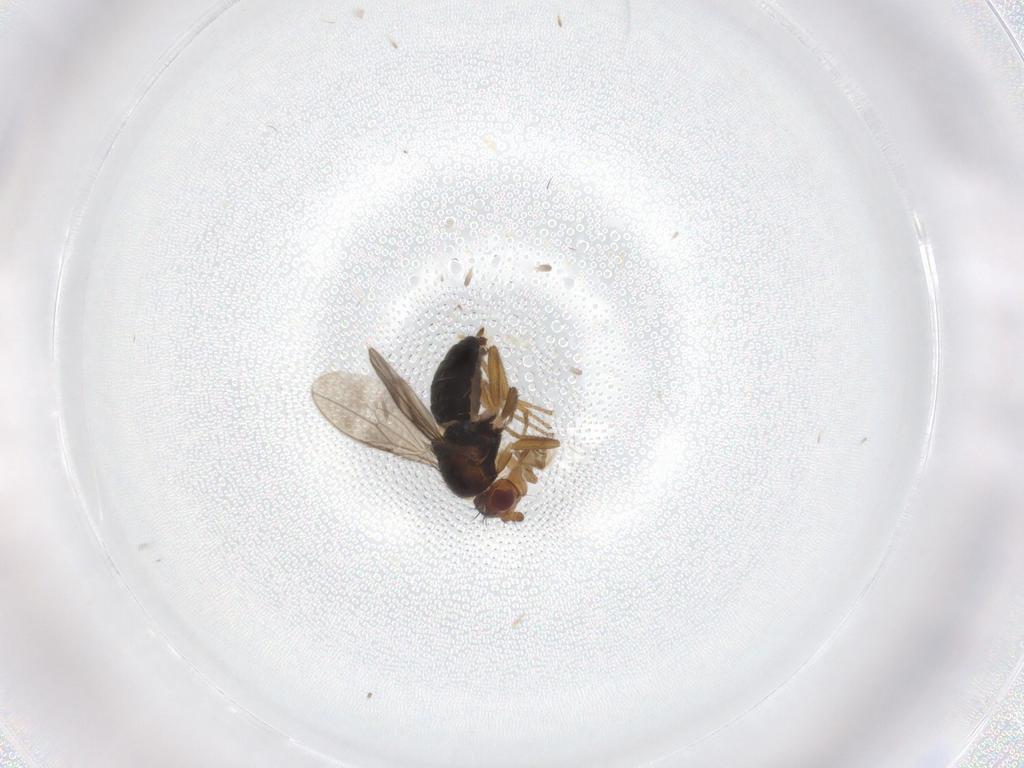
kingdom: Animalia
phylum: Arthropoda
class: Insecta
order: Diptera
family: Sphaeroceridae
